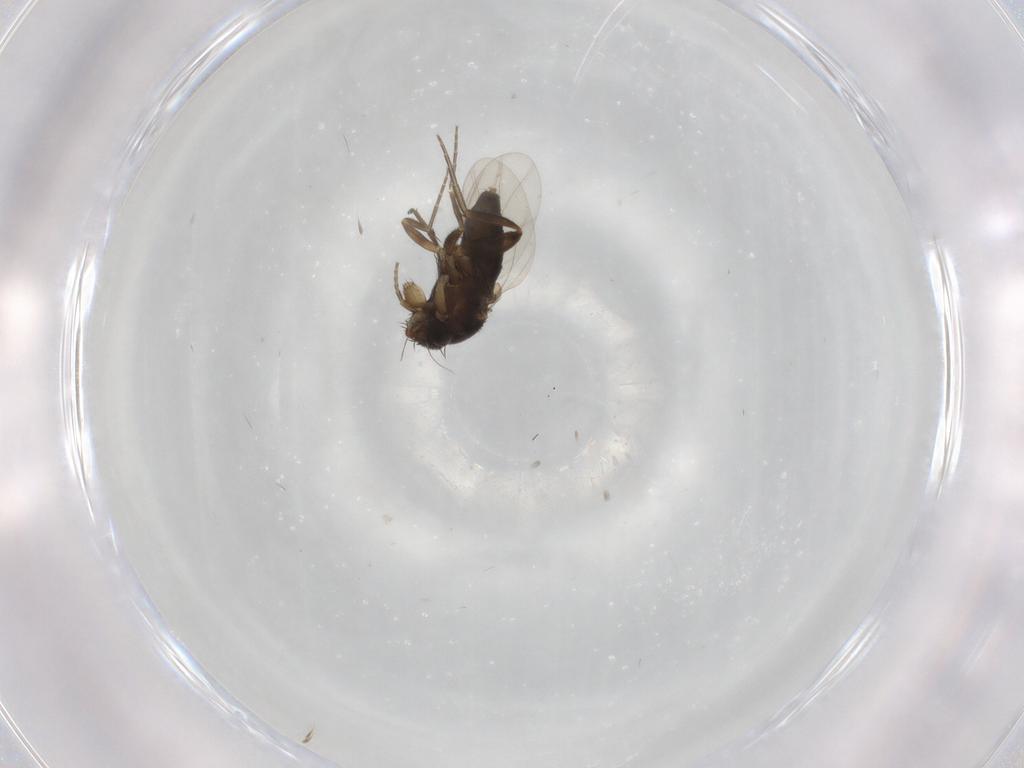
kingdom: Animalia
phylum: Arthropoda
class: Insecta
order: Diptera
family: Phoridae
